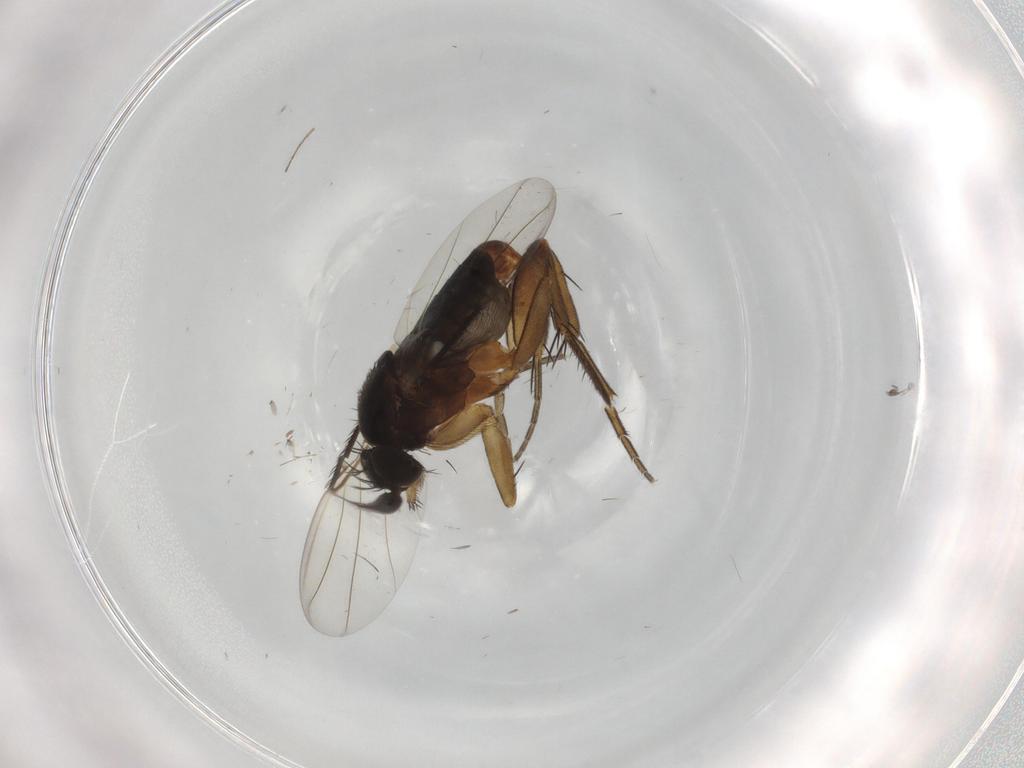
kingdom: Animalia
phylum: Arthropoda
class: Insecta
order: Diptera
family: Phoridae
